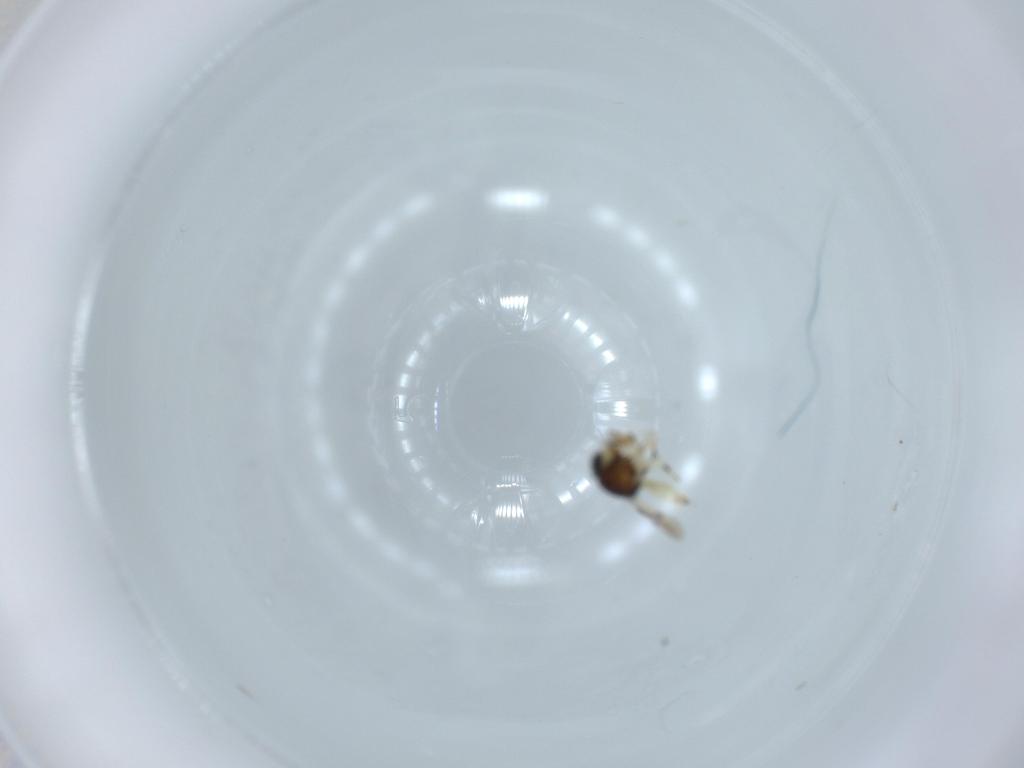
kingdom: Animalia
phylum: Arthropoda
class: Insecta
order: Hymenoptera
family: Scelionidae
